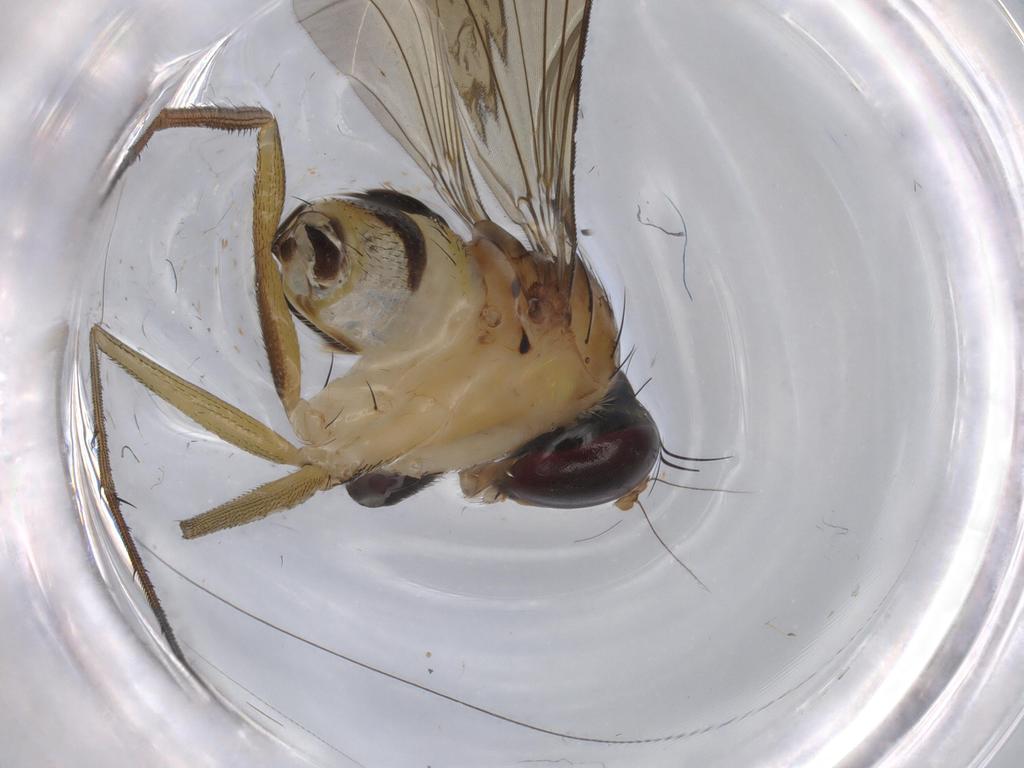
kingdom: Animalia
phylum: Arthropoda
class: Insecta
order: Diptera
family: Dolichopodidae
